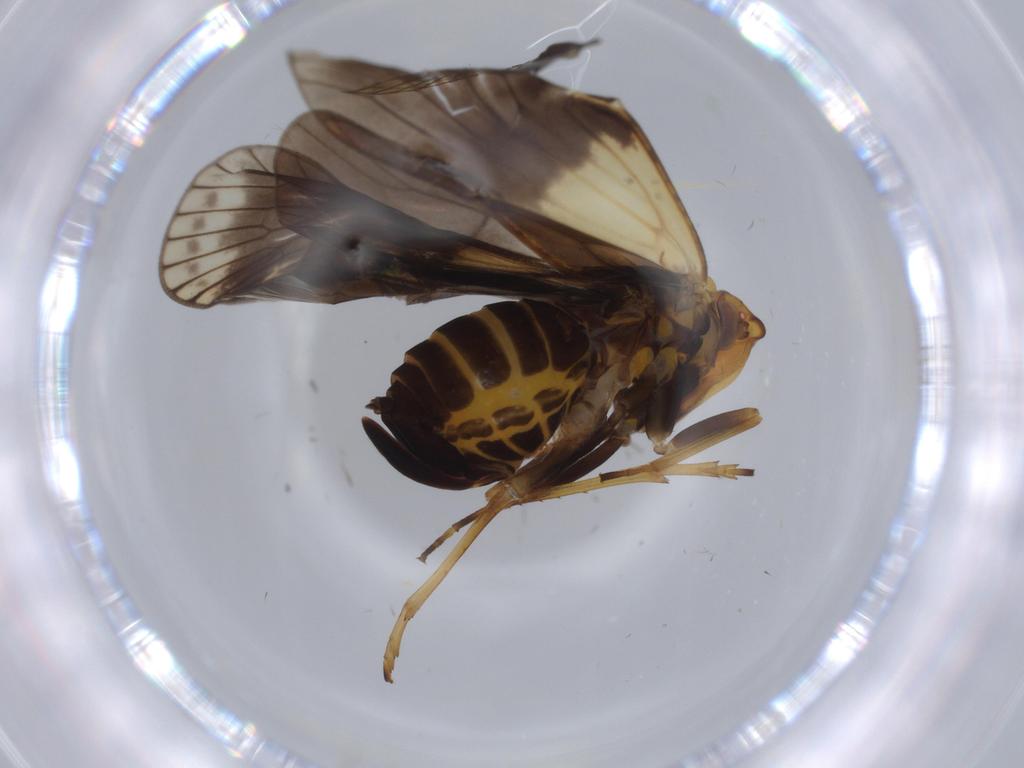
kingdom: Animalia
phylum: Arthropoda
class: Insecta
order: Hemiptera
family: Cixiidae
